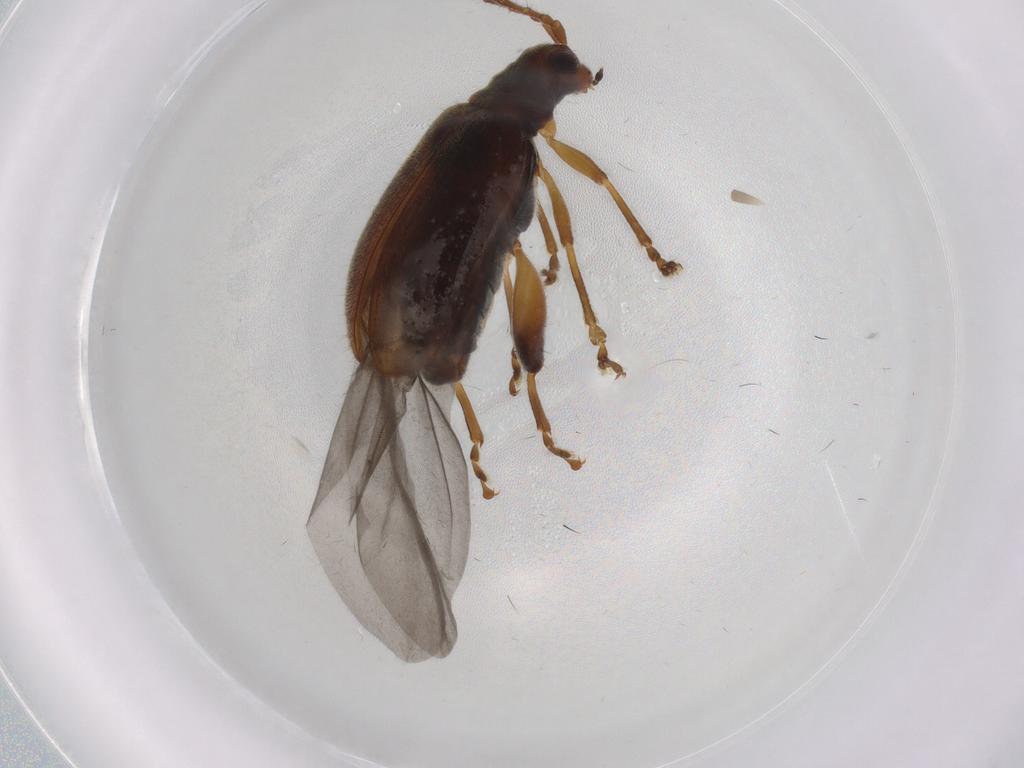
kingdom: Animalia
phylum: Arthropoda
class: Insecta
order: Coleoptera
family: Chrysomelidae
